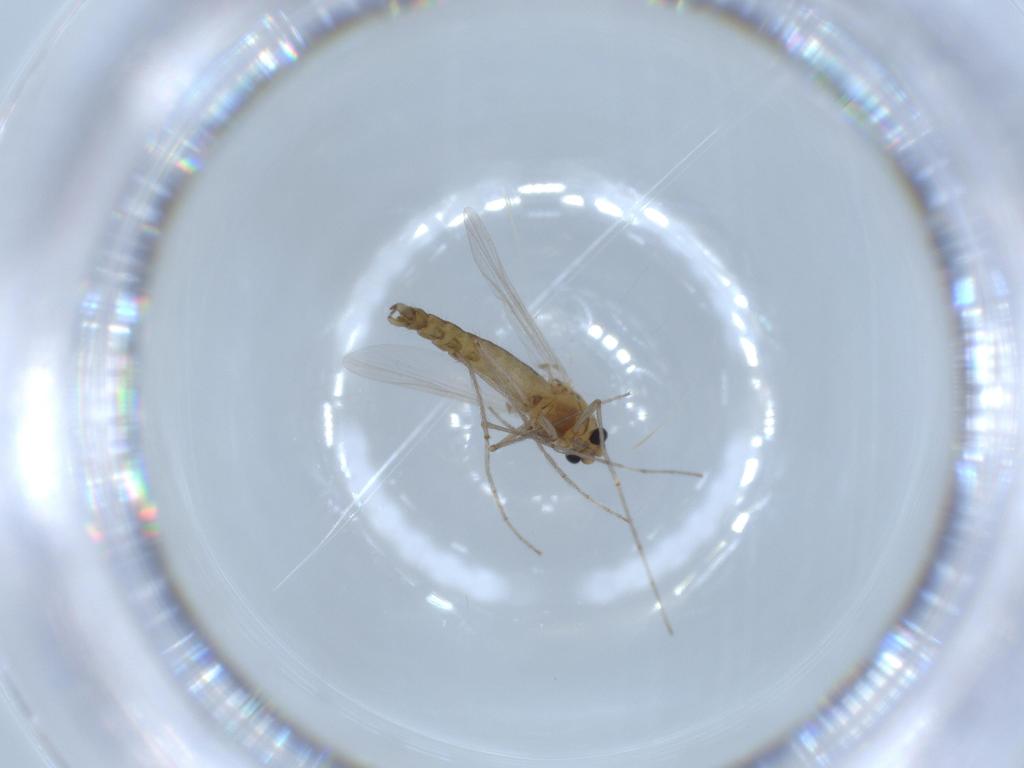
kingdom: Animalia
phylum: Arthropoda
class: Insecta
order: Diptera
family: Chironomidae
